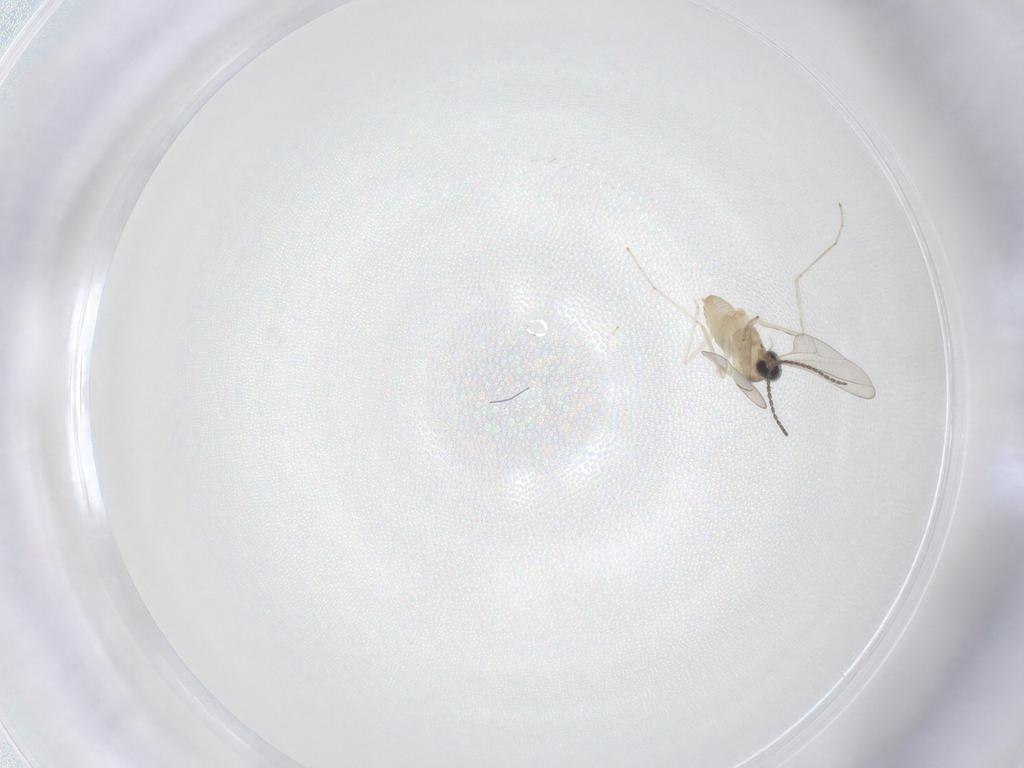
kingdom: Animalia
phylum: Arthropoda
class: Insecta
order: Diptera
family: Cecidomyiidae
